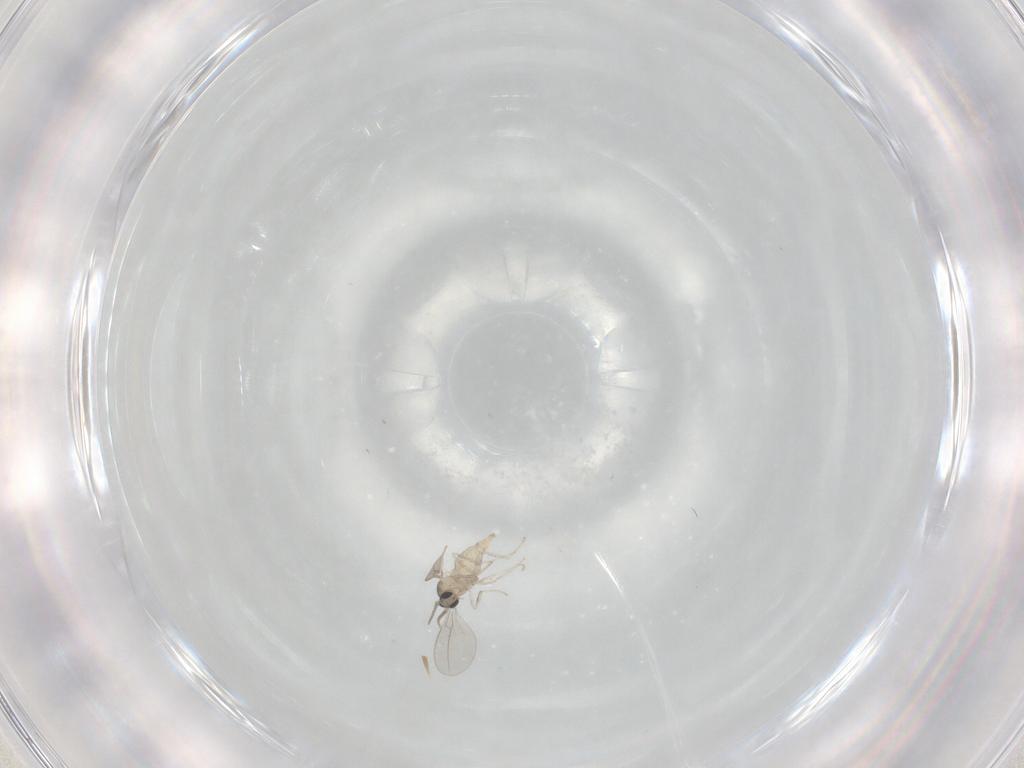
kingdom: Animalia
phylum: Arthropoda
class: Insecta
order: Diptera
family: Cecidomyiidae
